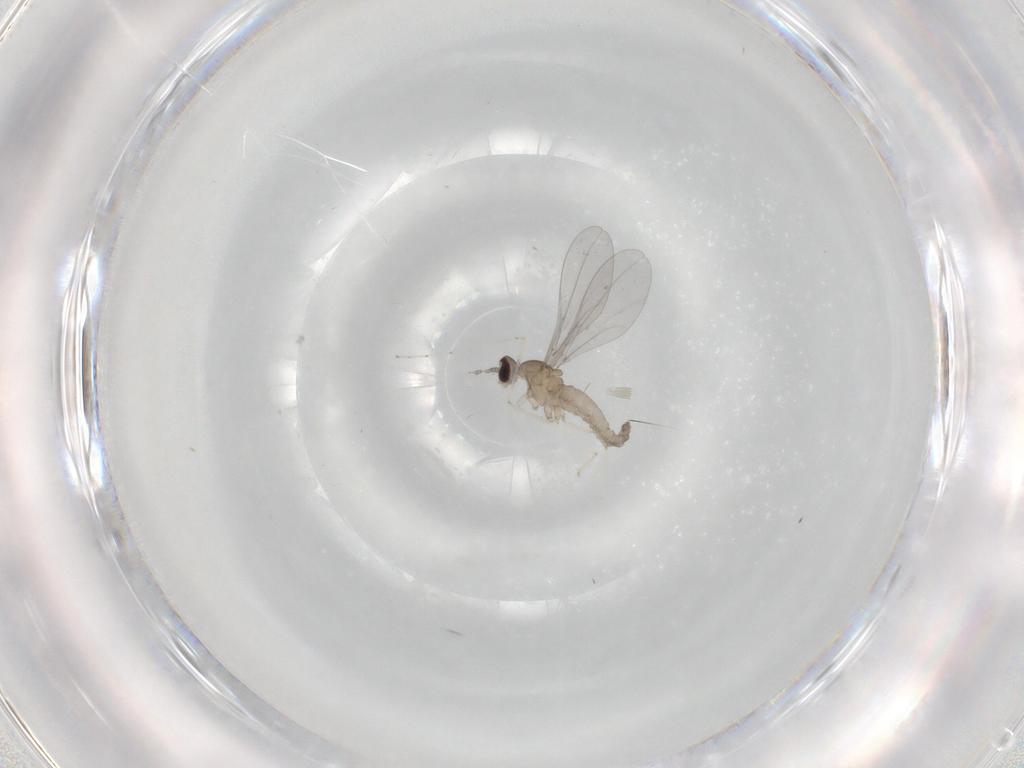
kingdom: Animalia
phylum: Arthropoda
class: Insecta
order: Diptera
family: Cecidomyiidae
